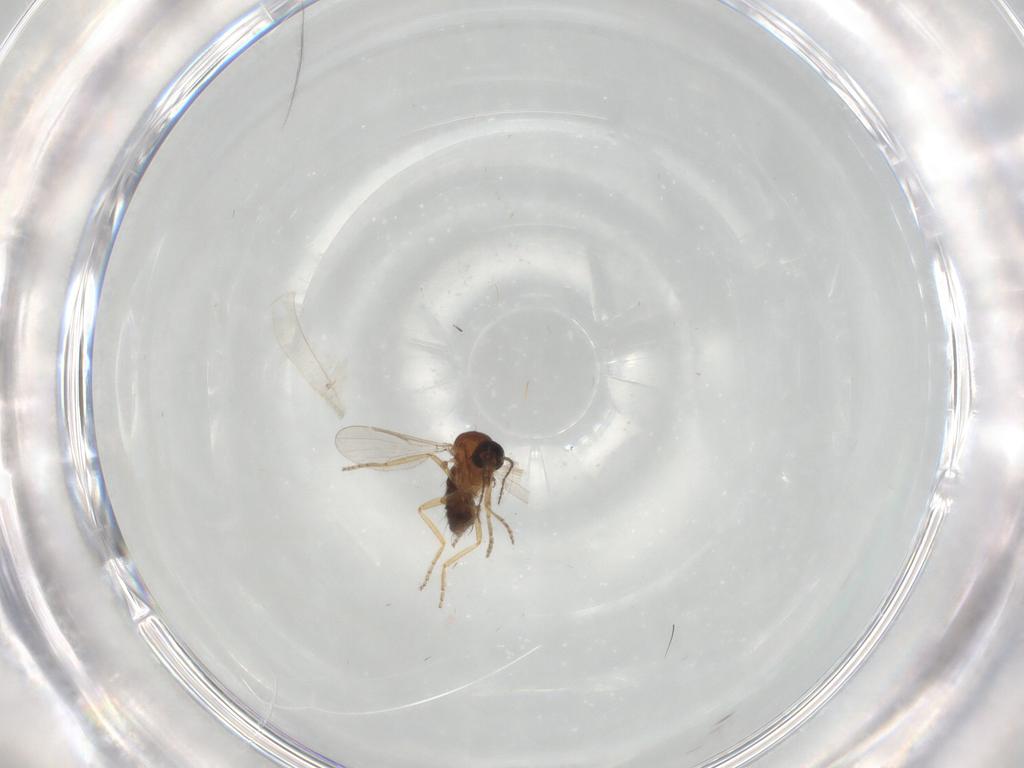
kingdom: Animalia
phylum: Arthropoda
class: Insecta
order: Diptera
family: Ceratopogonidae
